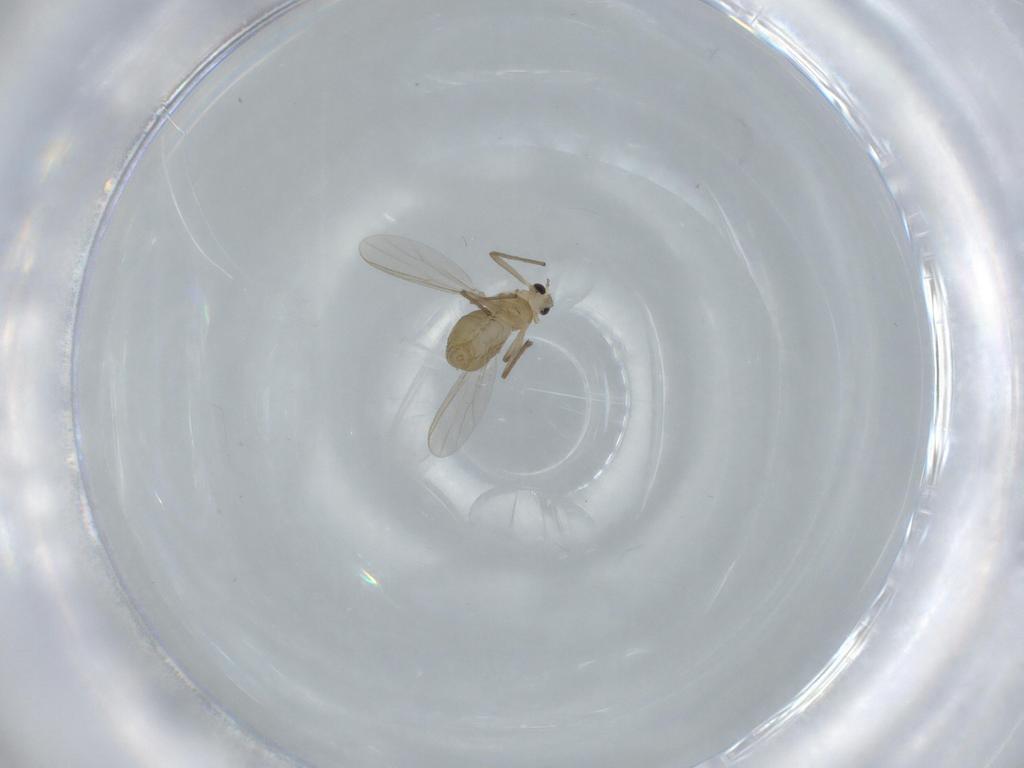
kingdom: Animalia
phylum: Arthropoda
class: Insecta
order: Diptera
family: Chironomidae
